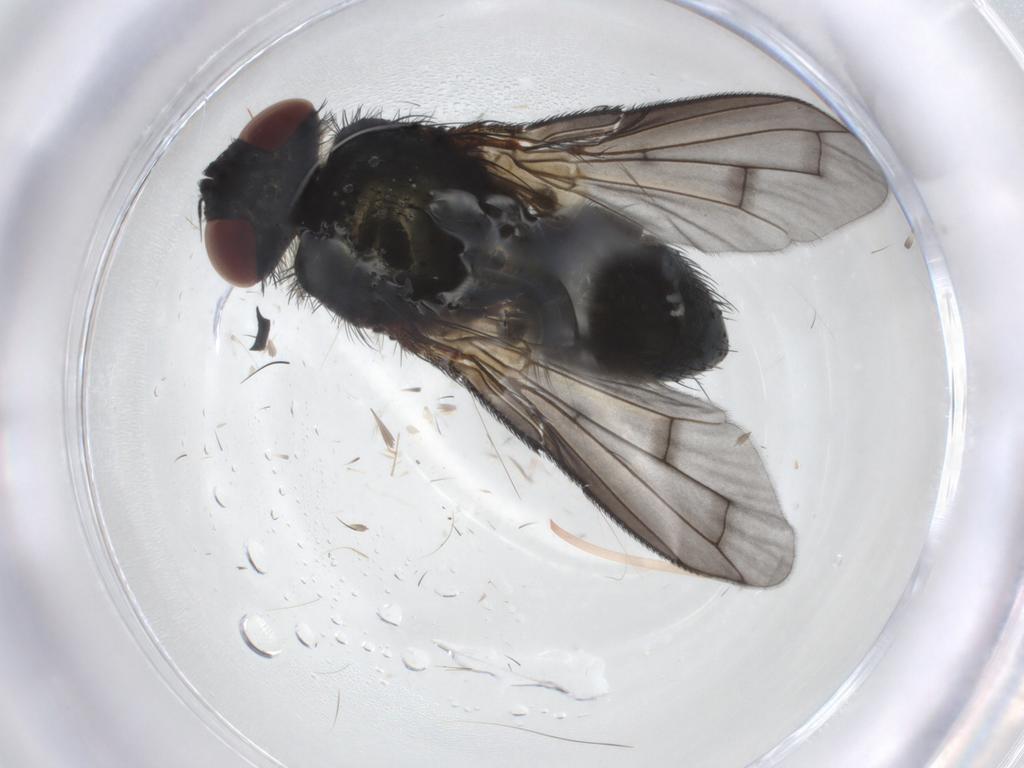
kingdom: Animalia
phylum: Arthropoda
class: Insecta
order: Diptera
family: Tachinidae
